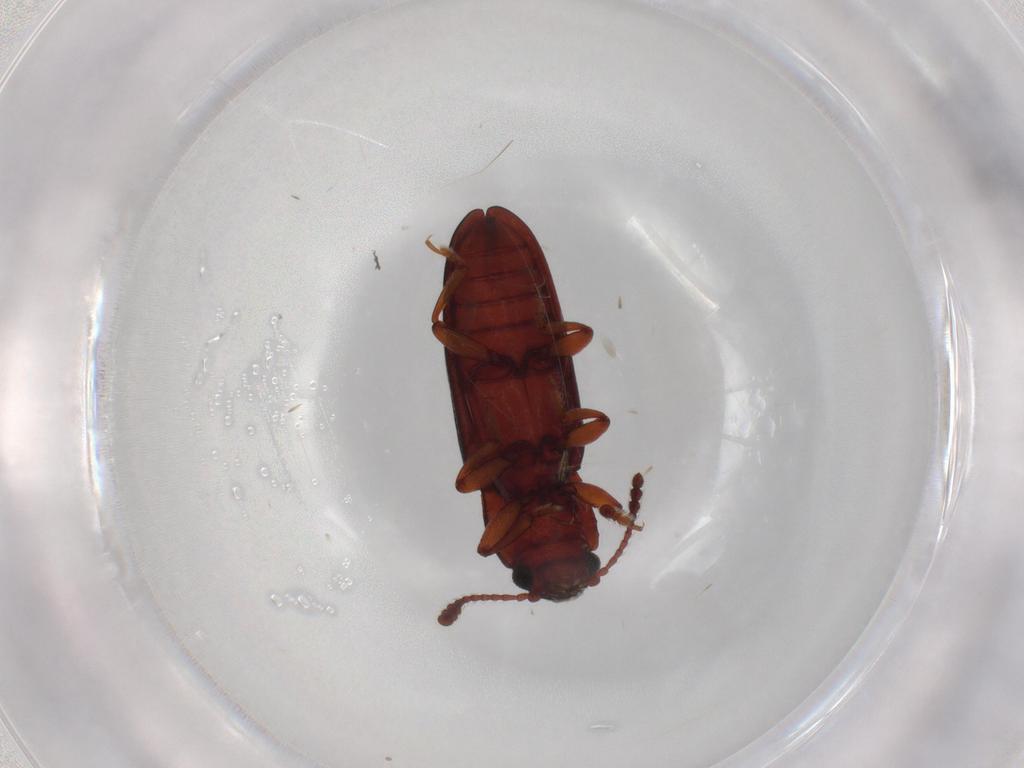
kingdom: Animalia
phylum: Arthropoda
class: Insecta
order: Coleoptera
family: Erotylidae
